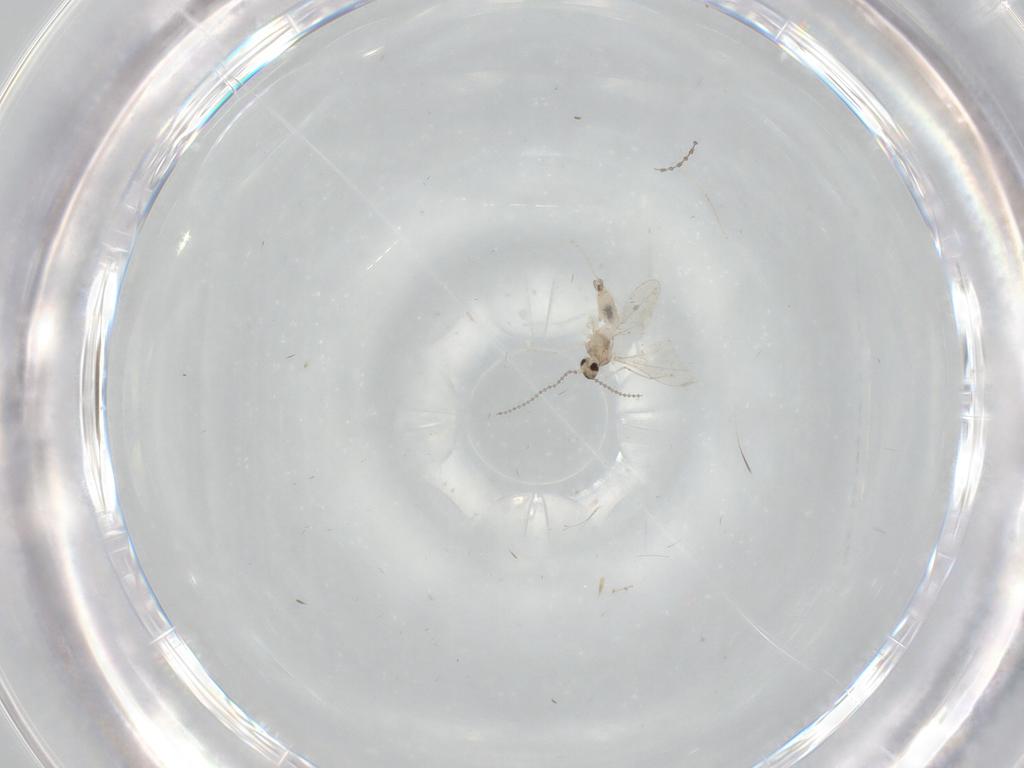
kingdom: Animalia
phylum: Arthropoda
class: Insecta
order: Diptera
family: Cecidomyiidae
